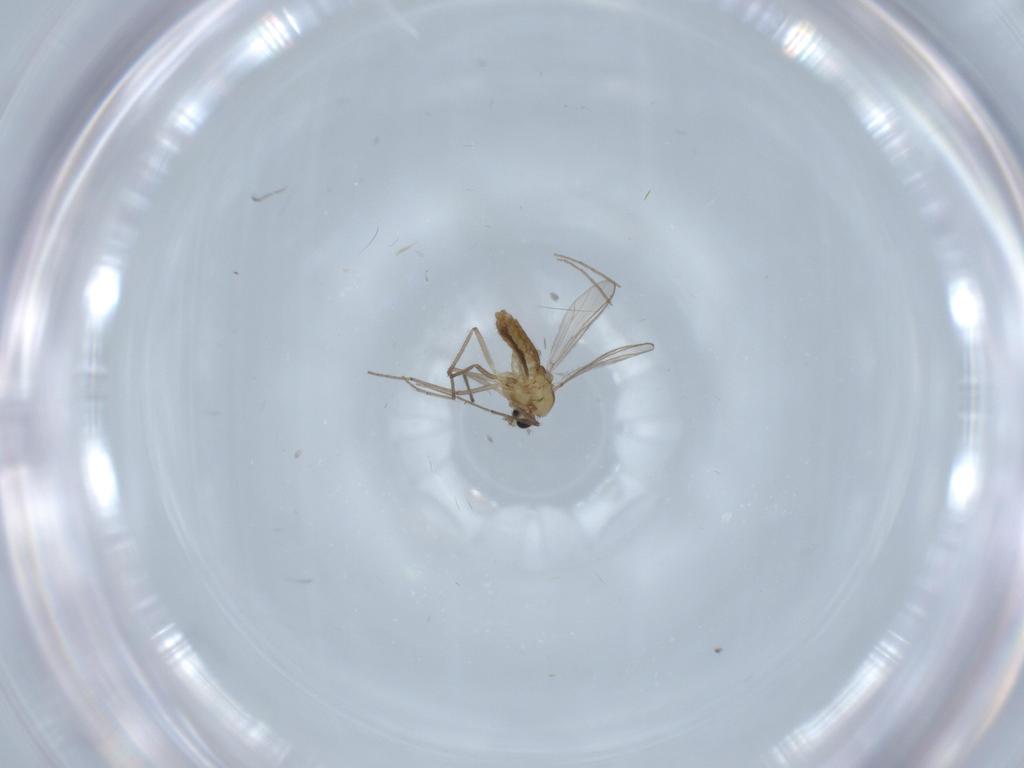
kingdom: Animalia
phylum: Arthropoda
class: Insecta
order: Diptera
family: Chironomidae
